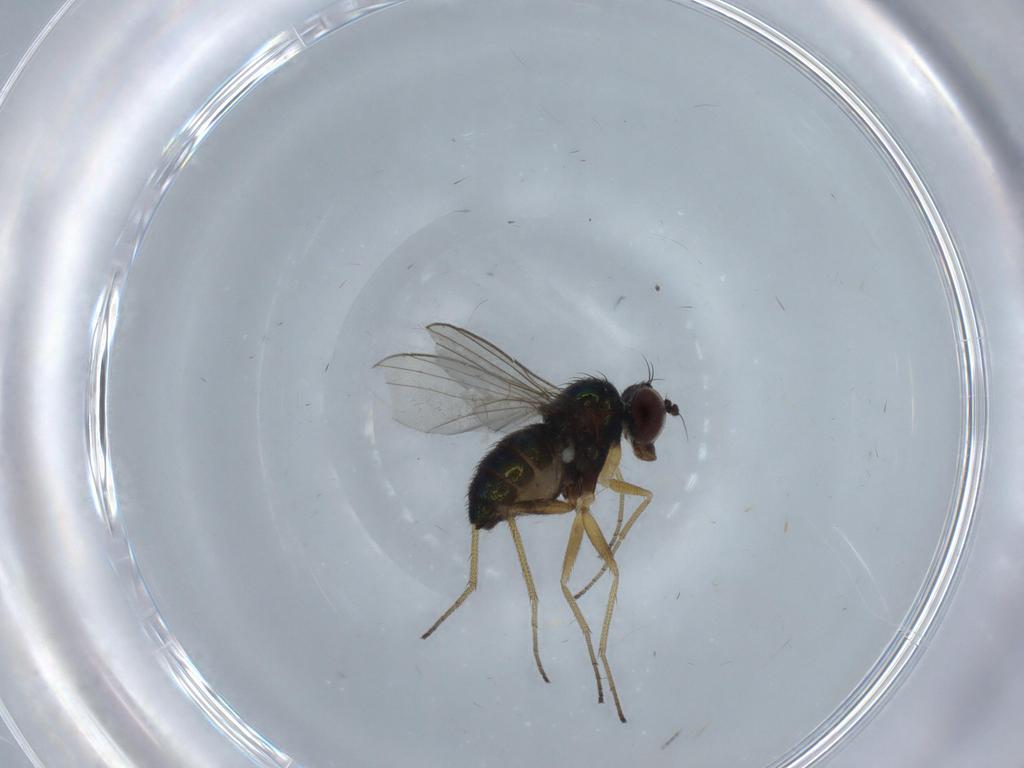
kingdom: Animalia
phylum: Arthropoda
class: Insecta
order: Diptera
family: Dolichopodidae
